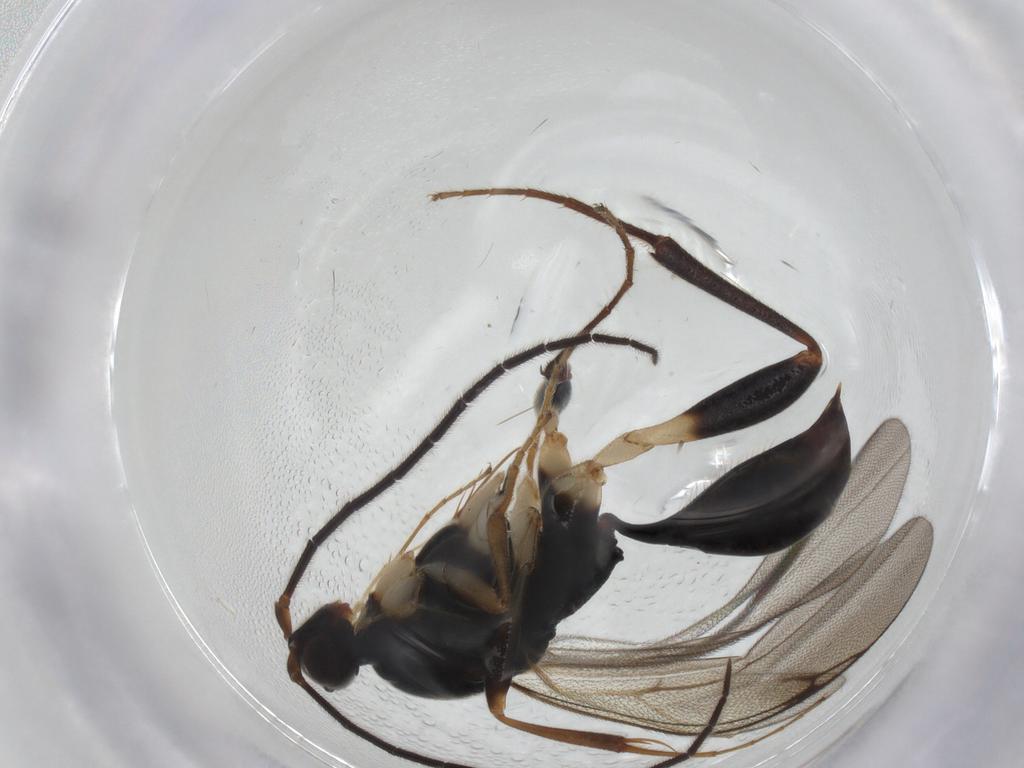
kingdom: Animalia
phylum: Arthropoda
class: Insecta
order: Hymenoptera
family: Proctotrupidae
